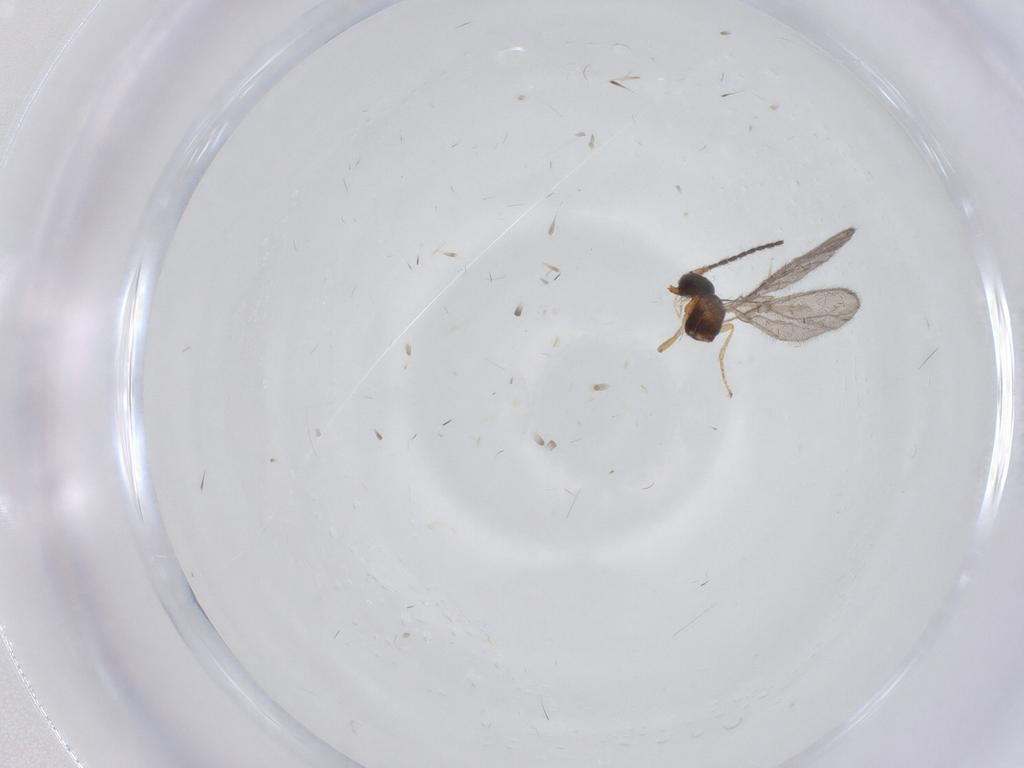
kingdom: Animalia
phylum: Arthropoda
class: Insecta
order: Hymenoptera
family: Braconidae
